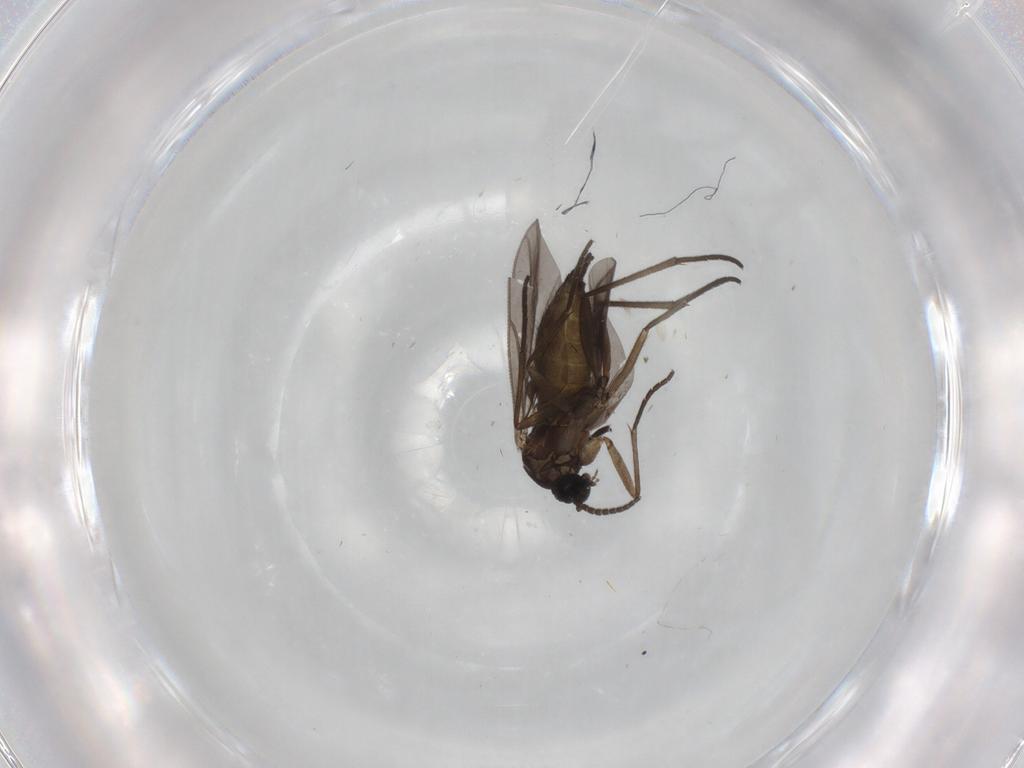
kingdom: Animalia
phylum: Arthropoda
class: Insecta
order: Diptera
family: Sciaridae
